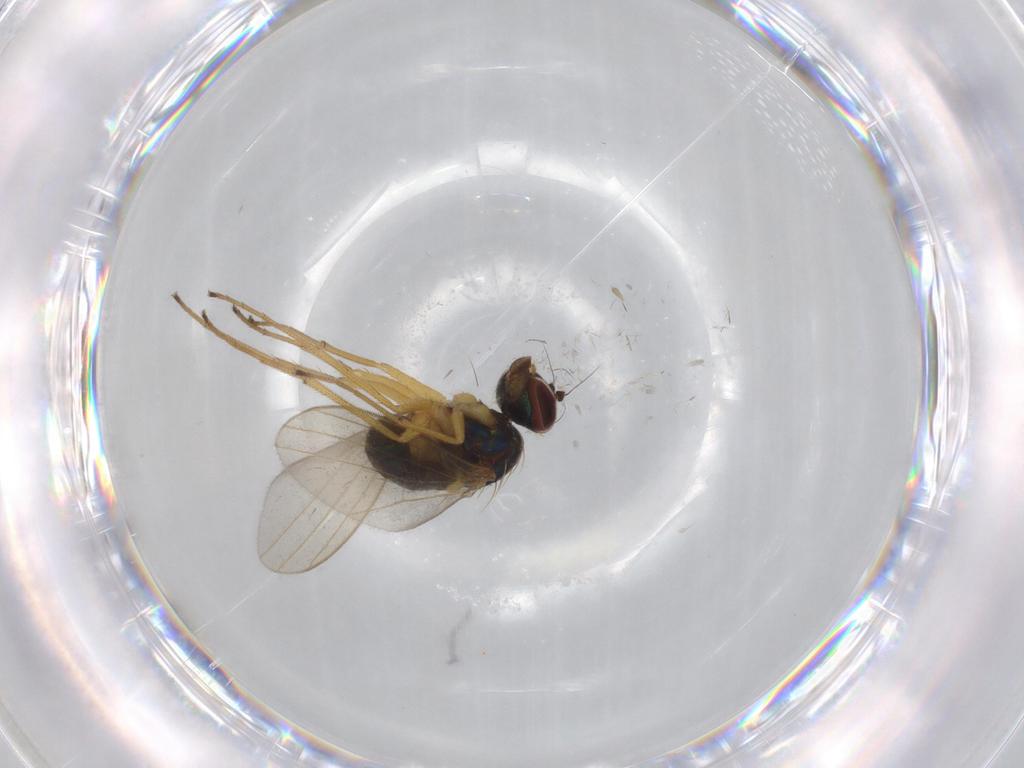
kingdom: Animalia
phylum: Arthropoda
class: Insecta
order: Diptera
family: Dolichopodidae
